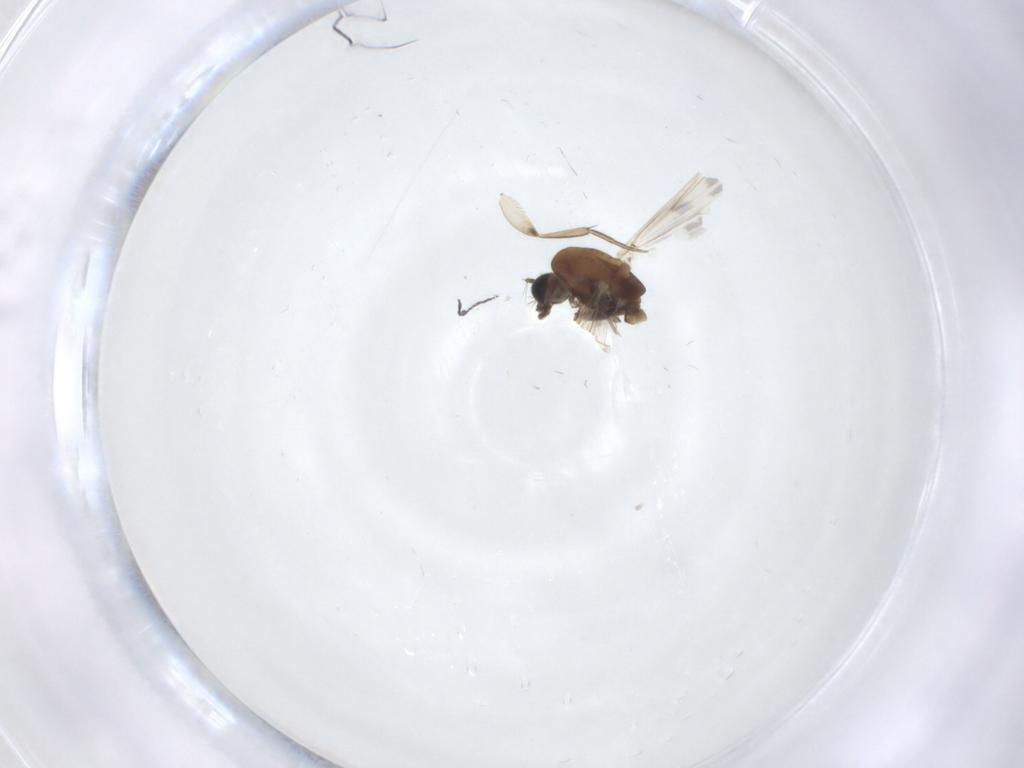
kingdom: Animalia
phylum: Arthropoda
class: Insecta
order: Diptera
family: Chironomidae
